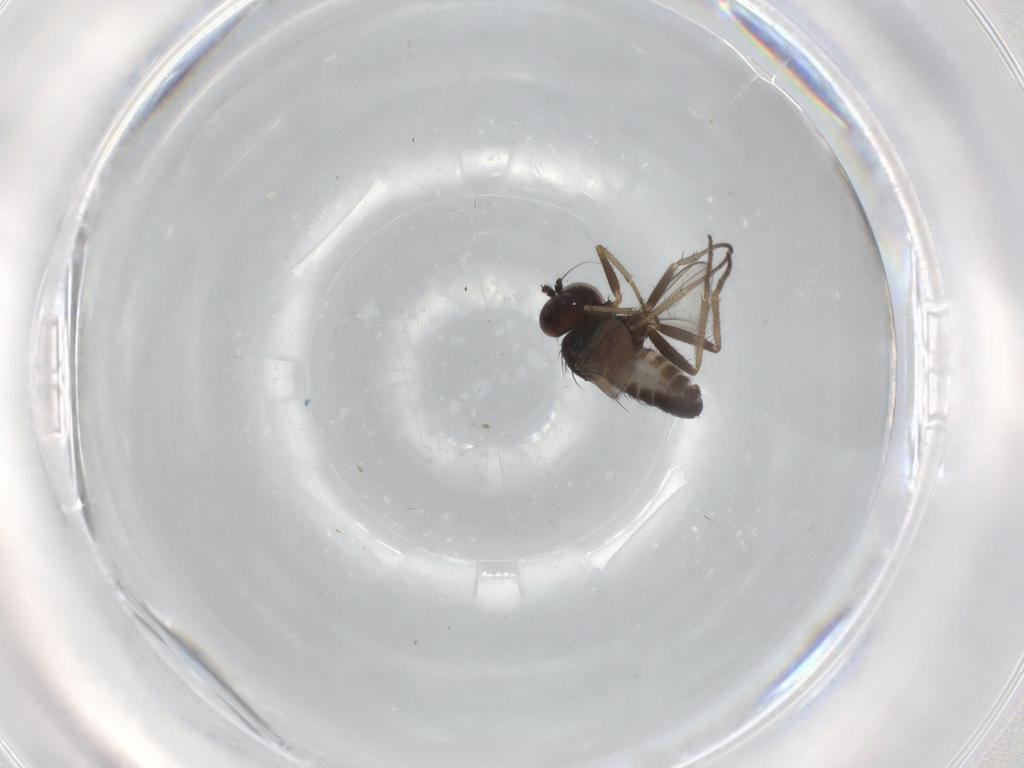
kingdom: Animalia
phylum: Arthropoda
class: Insecta
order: Diptera
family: Dolichopodidae
